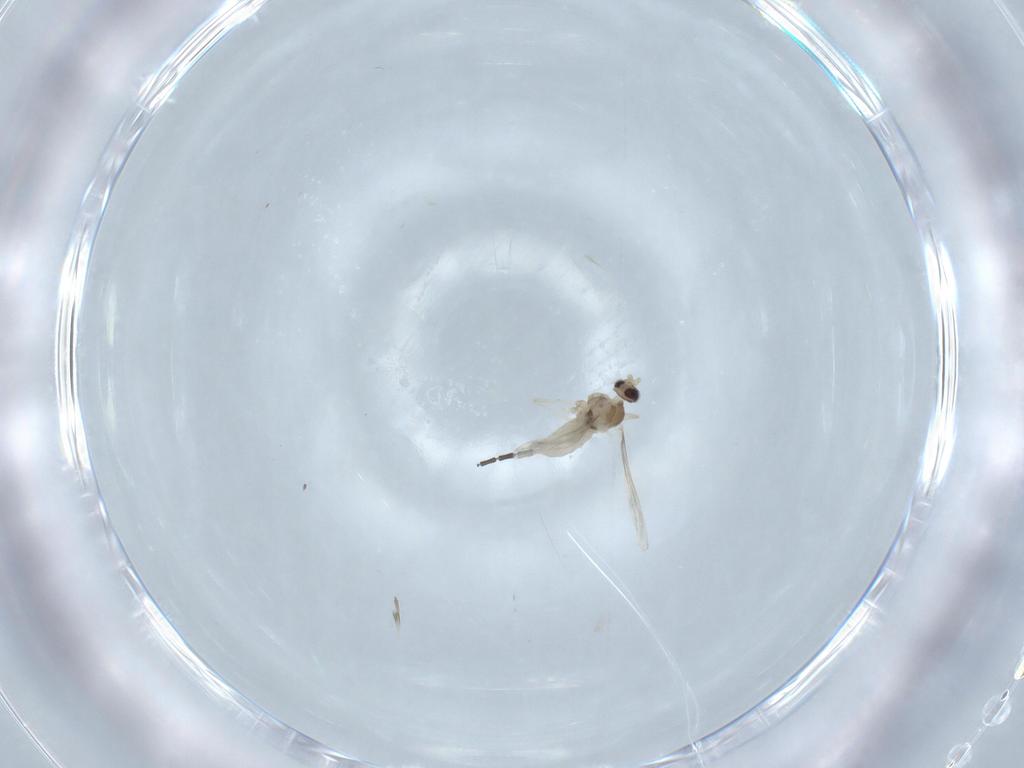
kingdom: Animalia
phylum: Arthropoda
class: Insecta
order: Diptera
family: Cecidomyiidae
